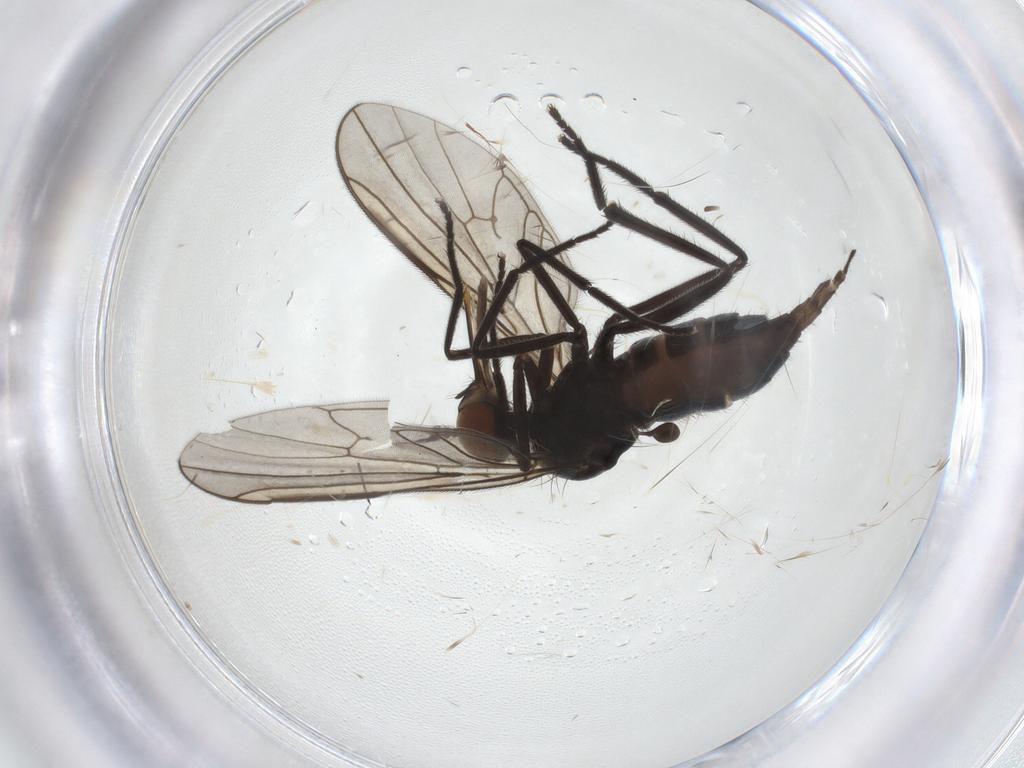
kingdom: Animalia
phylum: Arthropoda
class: Insecta
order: Diptera
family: Empididae
